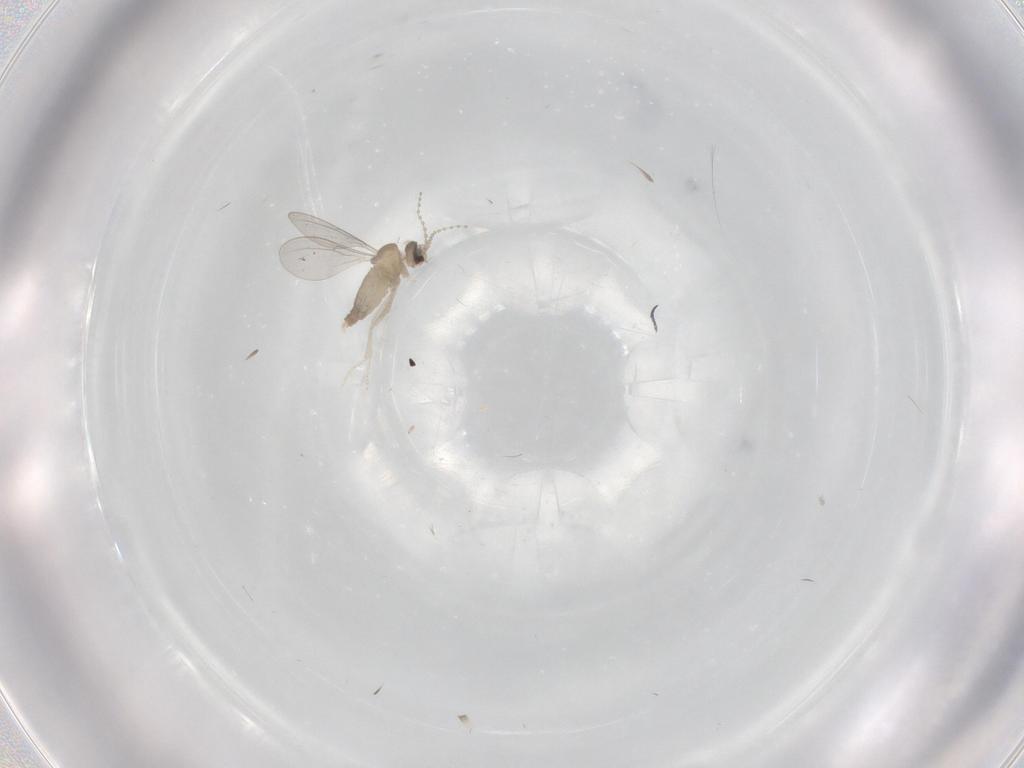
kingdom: Animalia
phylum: Arthropoda
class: Insecta
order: Diptera
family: Cecidomyiidae
